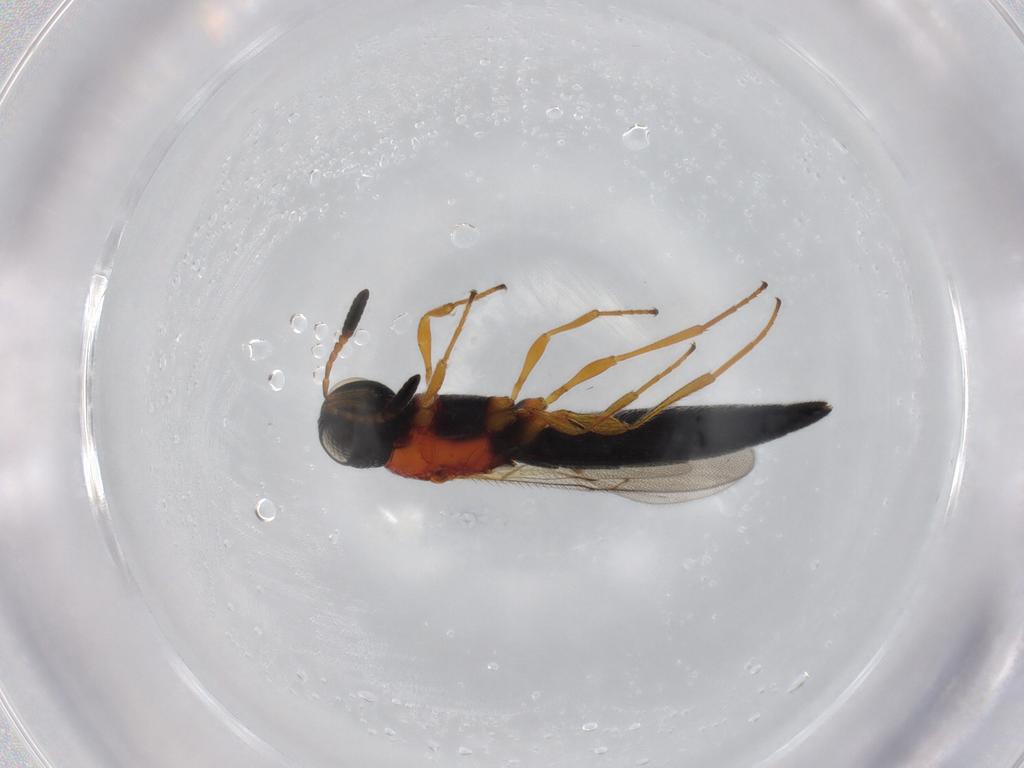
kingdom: Animalia
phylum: Arthropoda
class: Insecta
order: Hymenoptera
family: Scelionidae
